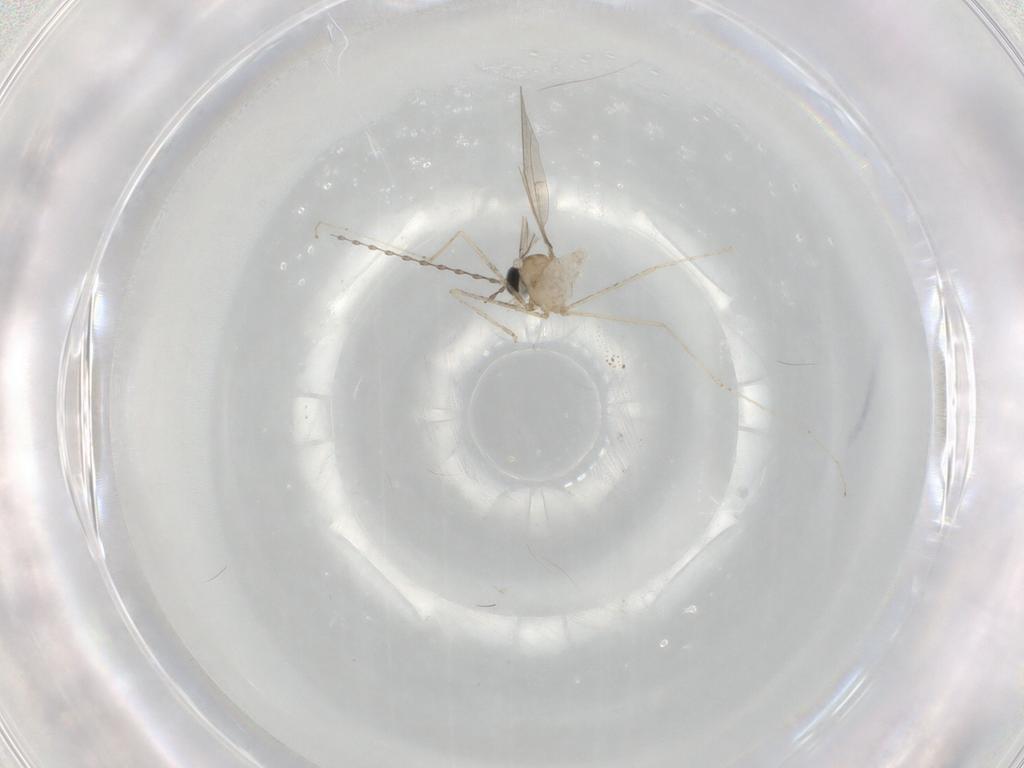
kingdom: Animalia
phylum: Arthropoda
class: Insecta
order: Diptera
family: Cecidomyiidae
